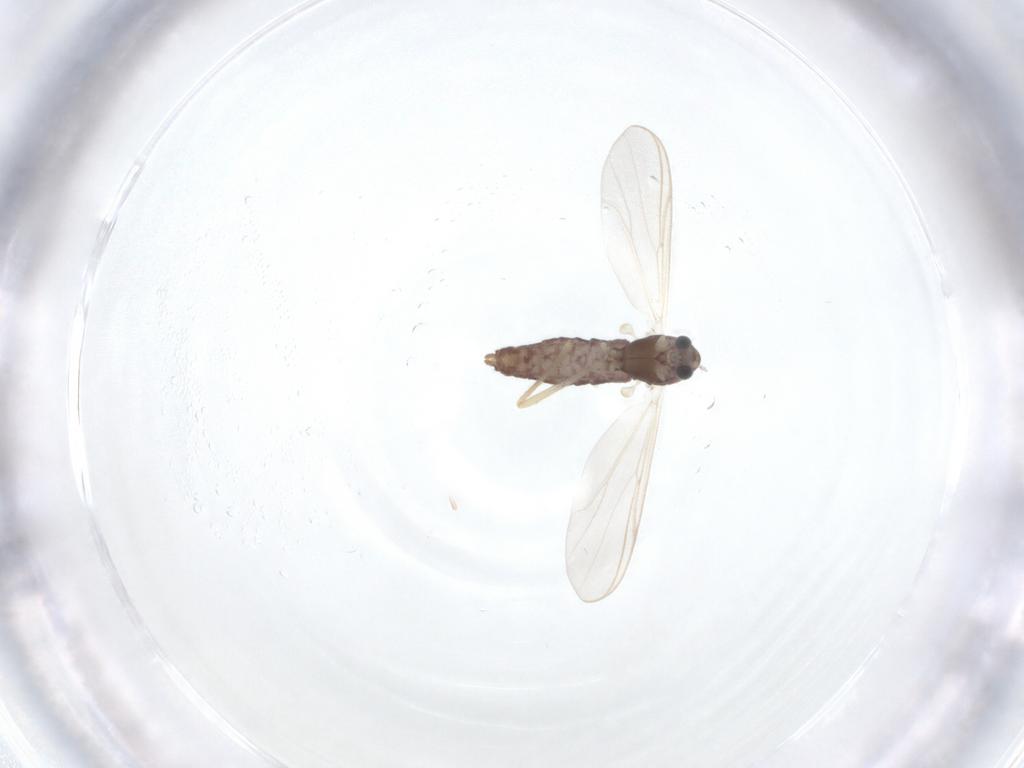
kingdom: Animalia
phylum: Arthropoda
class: Insecta
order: Diptera
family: Chironomidae
